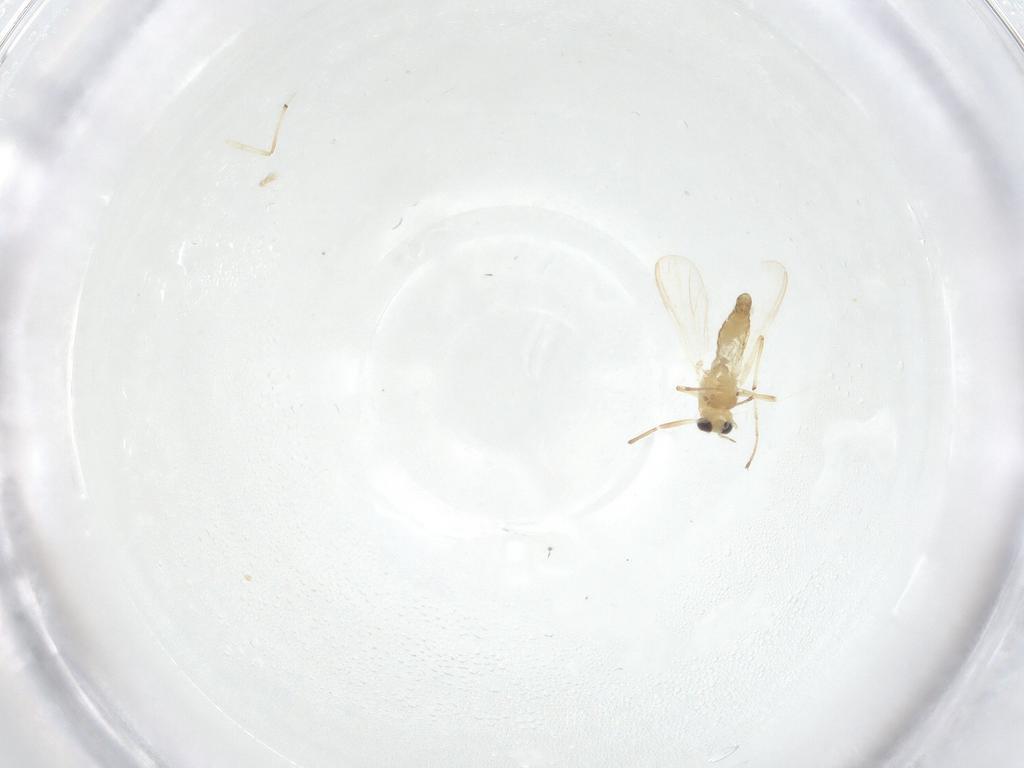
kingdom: Animalia
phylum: Arthropoda
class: Insecta
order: Diptera
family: Chironomidae
